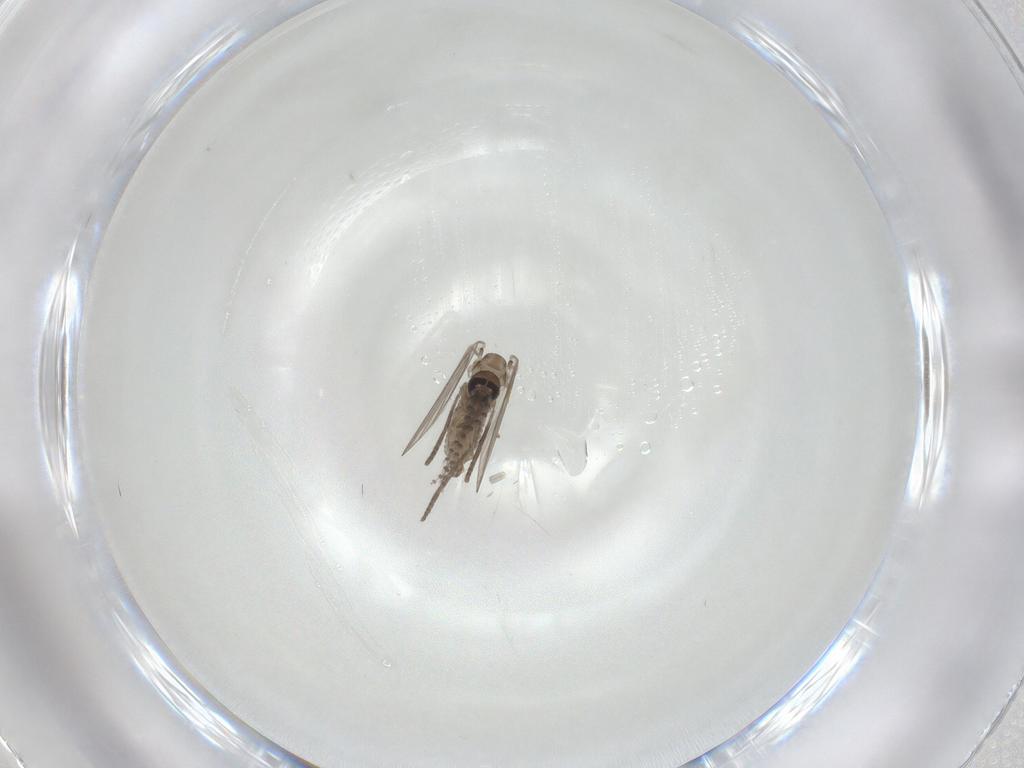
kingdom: Animalia
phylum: Arthropoda
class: Insecta
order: Diptera
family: Psychodidae
